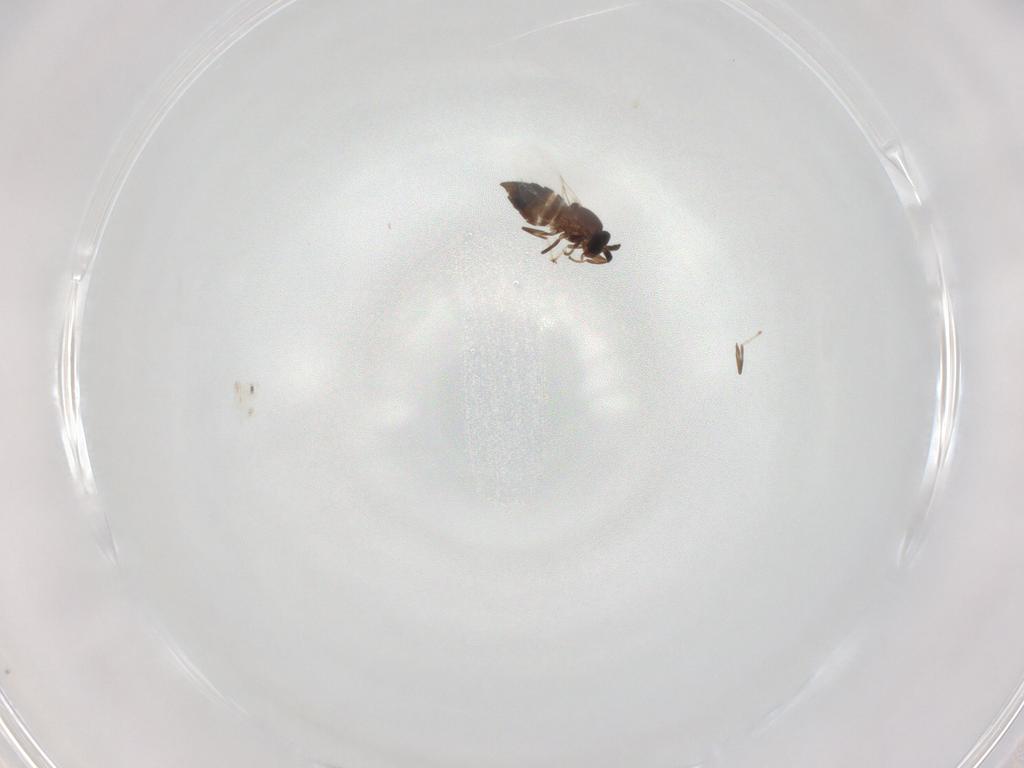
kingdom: Animalia
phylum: Arthropoda
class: Insecta
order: Diptera
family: Scatopsidae
